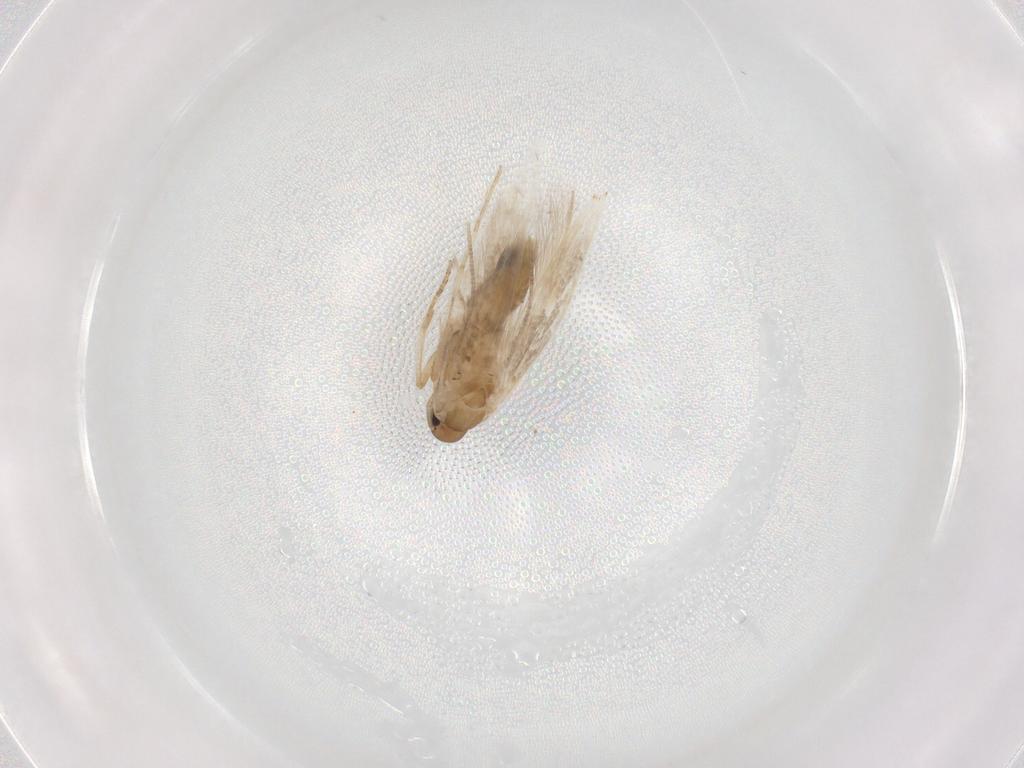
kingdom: Animalia
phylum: Arthropoda
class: Insecta
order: Lepidoptera
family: Cosmopterigidae
